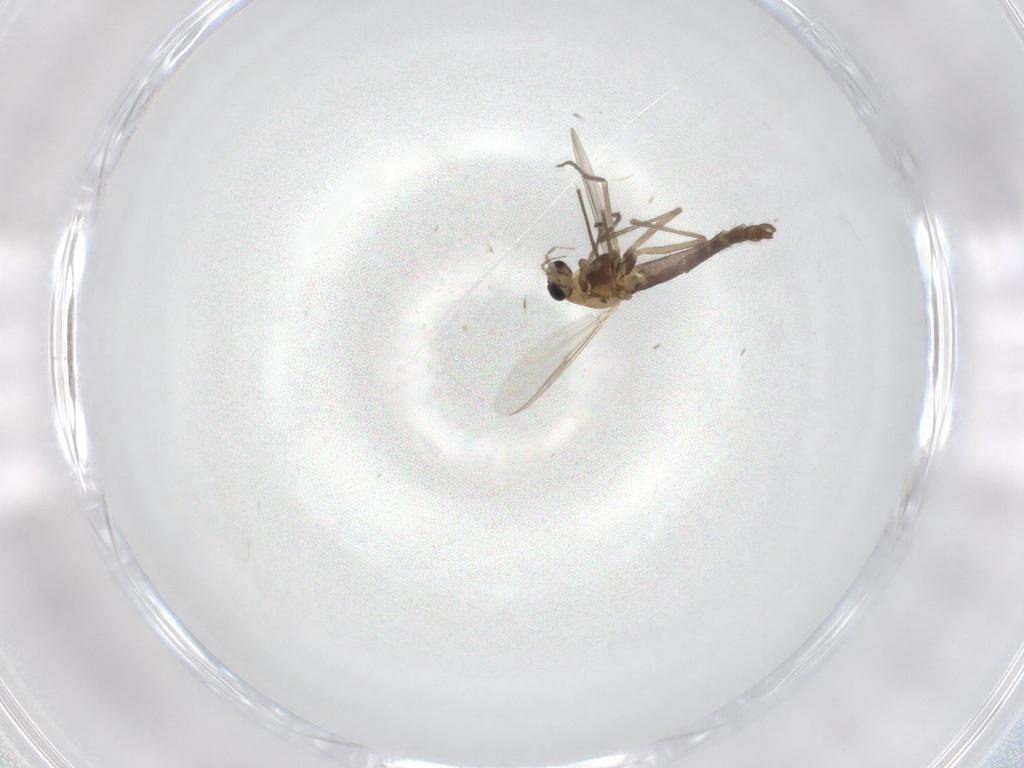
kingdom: Animalia
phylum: Arthropoda
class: Insecta
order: Diptera
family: Chironomidae
